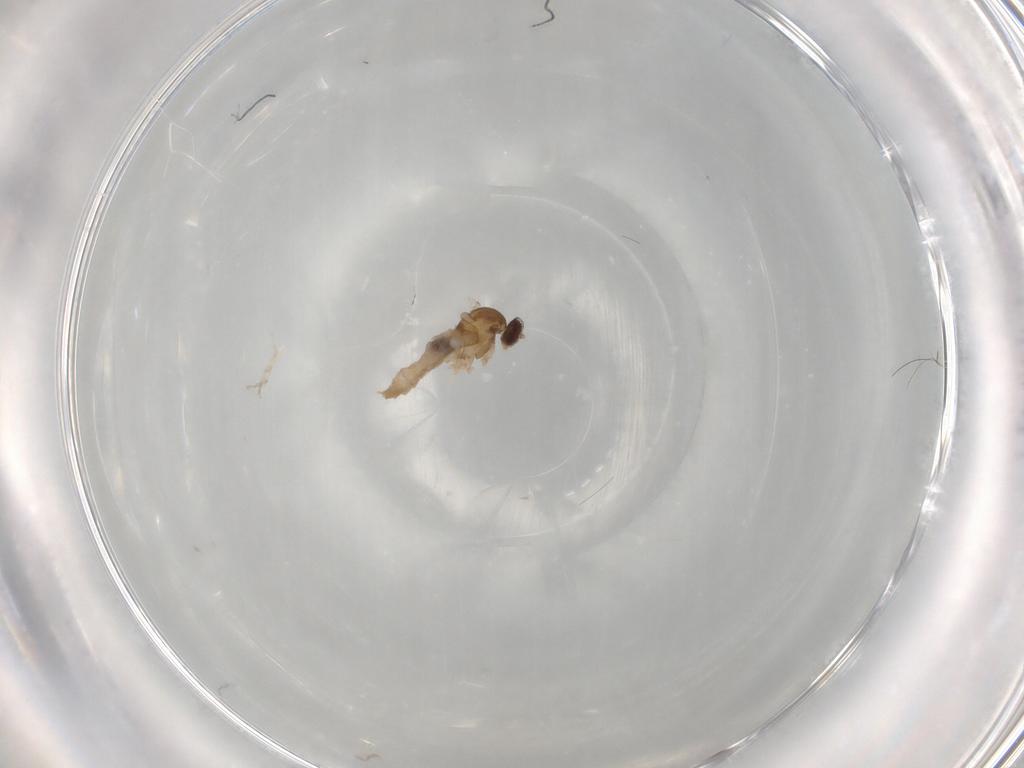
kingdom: Animalia
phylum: Arthropoda
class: Insecta
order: Diptera
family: Cecidomyiidae
